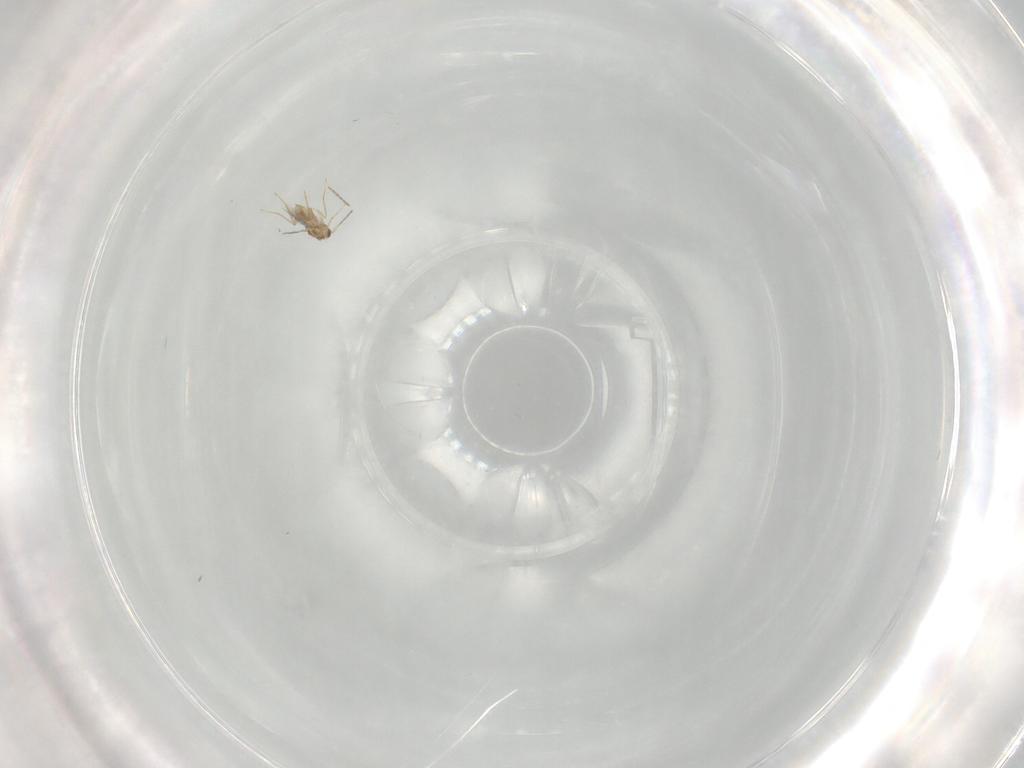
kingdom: Animalia
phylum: Arthropoda
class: Insecta
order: Hymenoptera
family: Mymaridae
